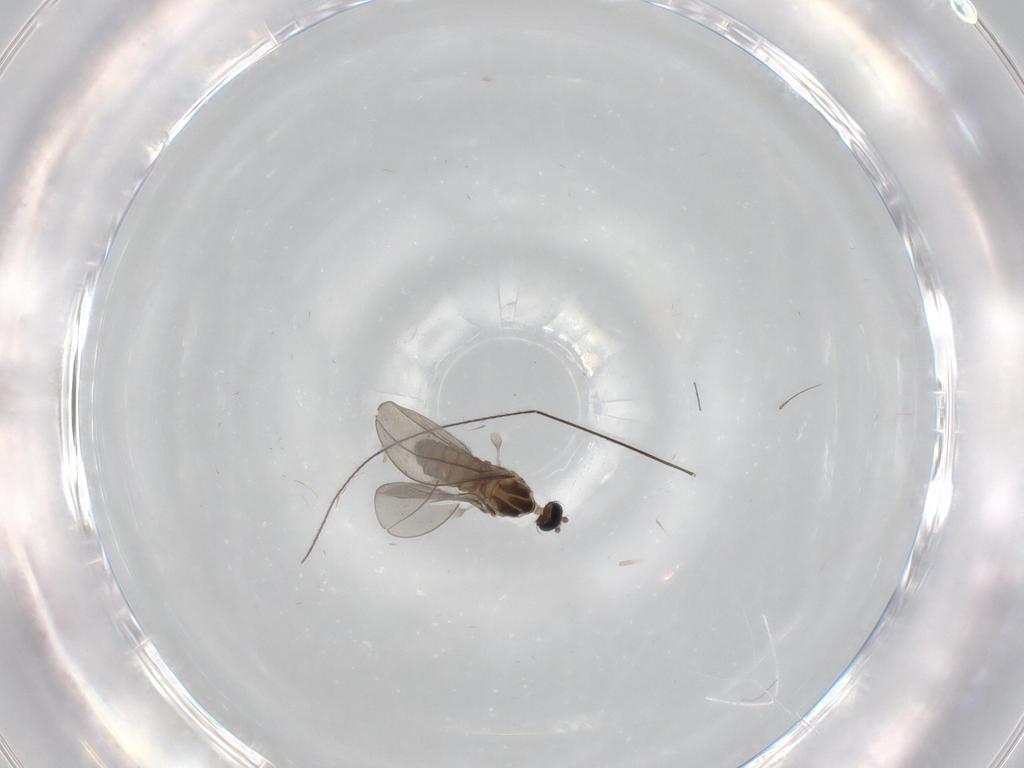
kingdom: Animalia
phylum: Arthropoda
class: Insecta
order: Diptera
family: Cecidomyiidae
